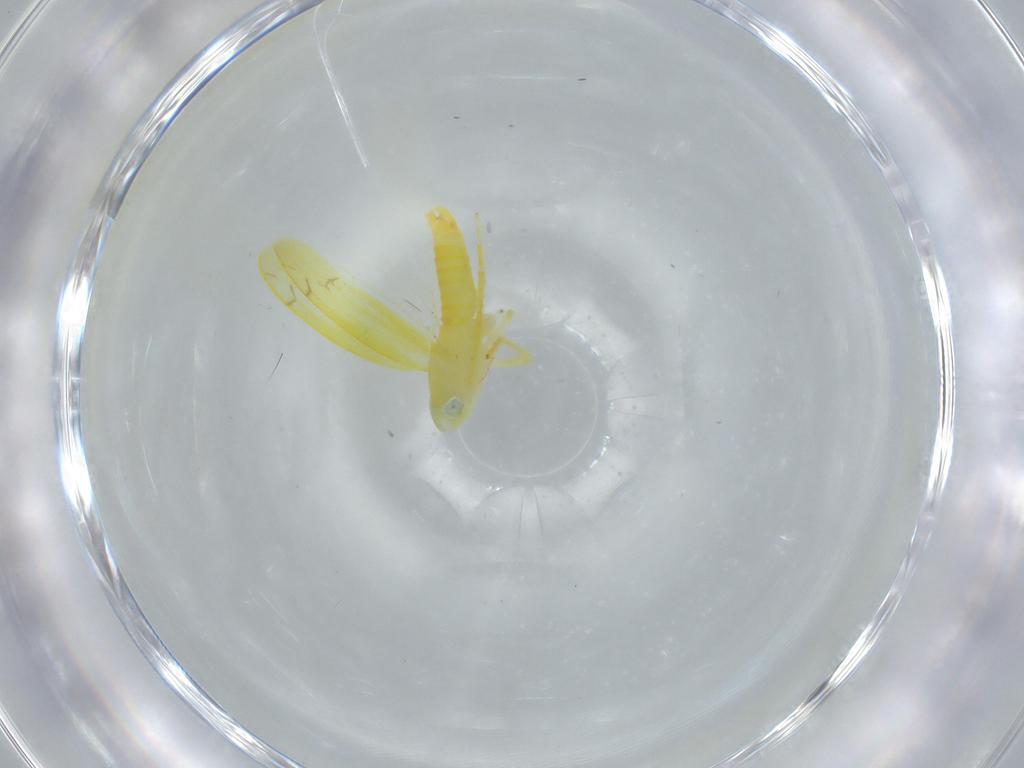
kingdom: Animalia
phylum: Arthropoda
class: Insecta
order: Hemiptera
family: Cicadellidae
